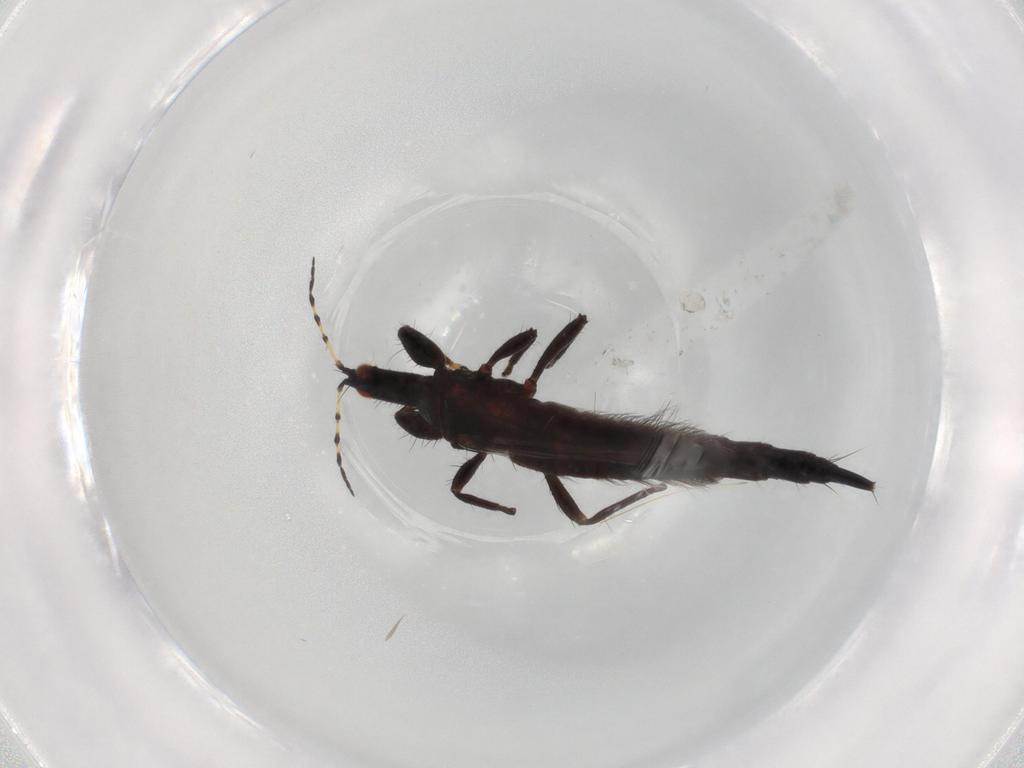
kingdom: Animalia
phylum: Arthropoda
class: Insecta
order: Thysanoptera
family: Phlaeothripidae
